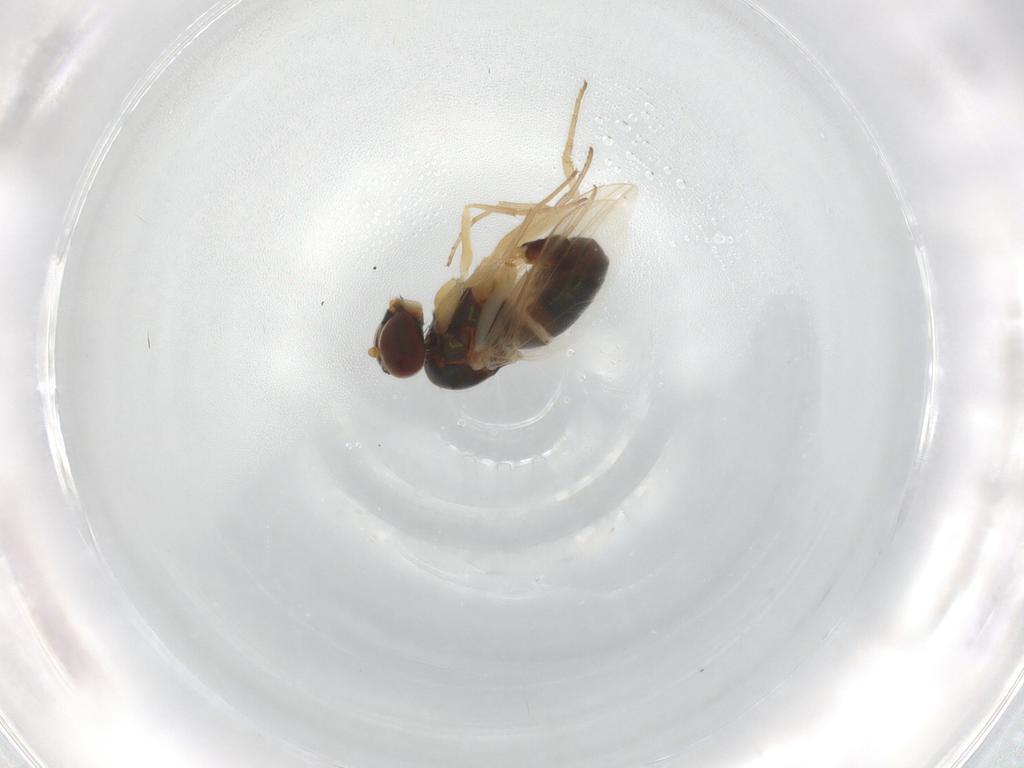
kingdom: Animalia
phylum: Arthropoda
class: Insecta
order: Diptera
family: Dolichopodidae
